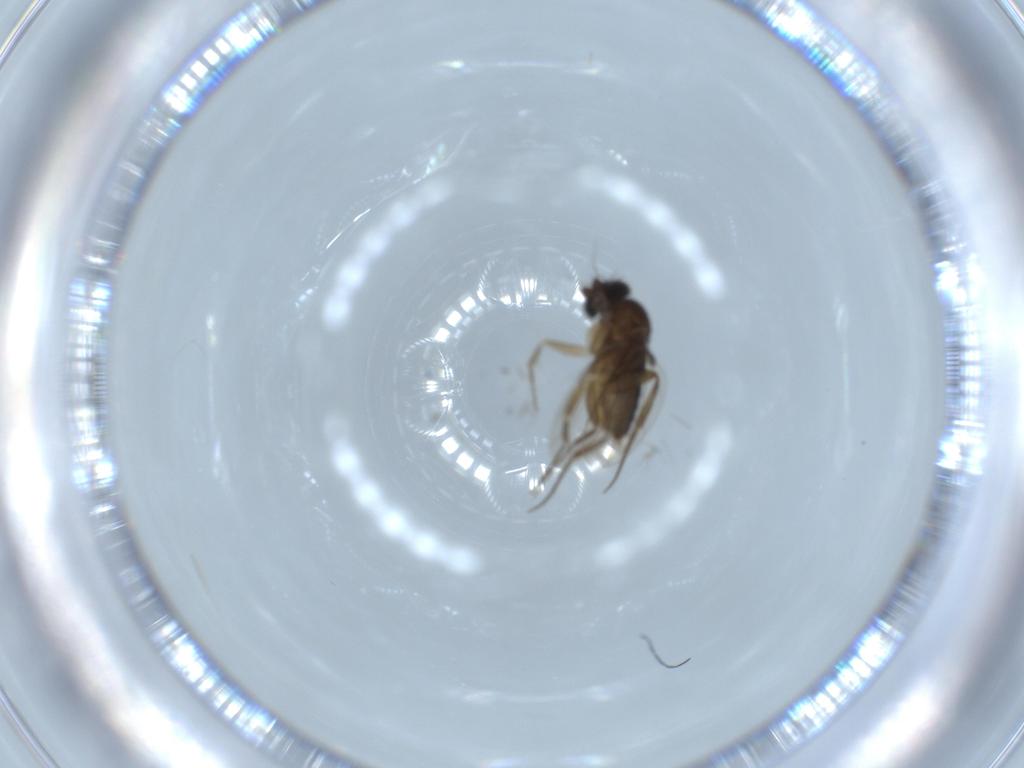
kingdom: Animalia
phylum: Arthropoda
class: Insecta
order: Diptera
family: Phoridae
